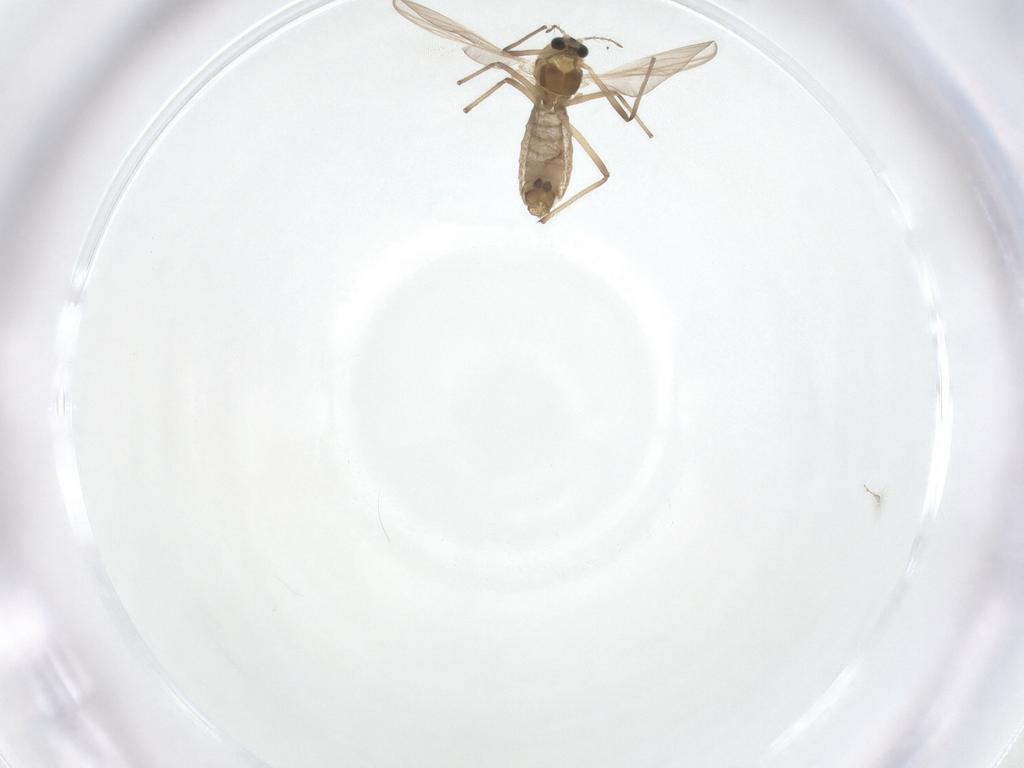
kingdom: Animalia
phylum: Arthropoda
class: Insecta
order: Diptera
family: Chironomidae
